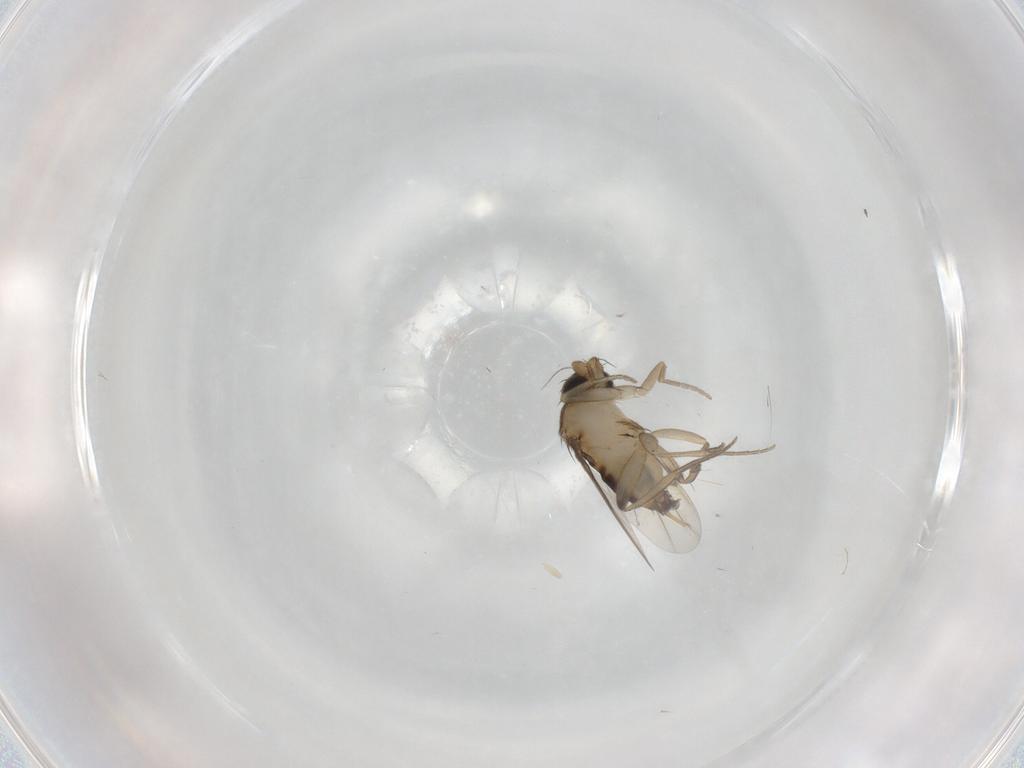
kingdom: Animalia
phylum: Arthropoda
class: Insecta
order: Diptera
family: Phoridae
